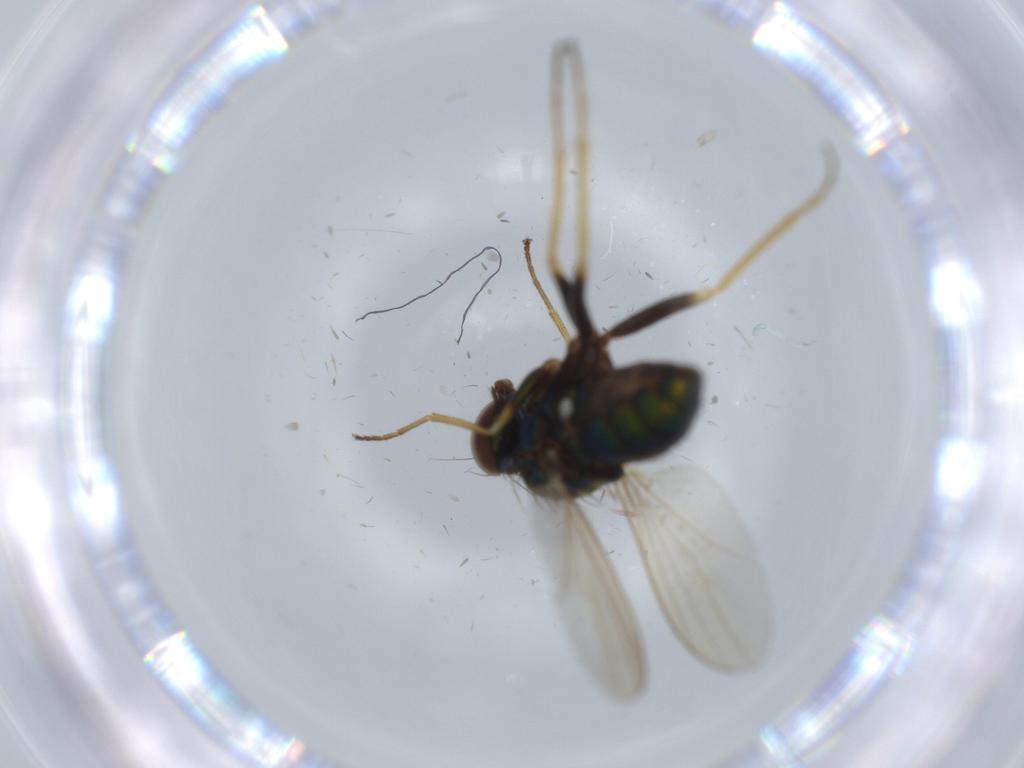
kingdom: Animalia
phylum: Arthropoda
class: Insecta
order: Diptera
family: Dolichopodidae
